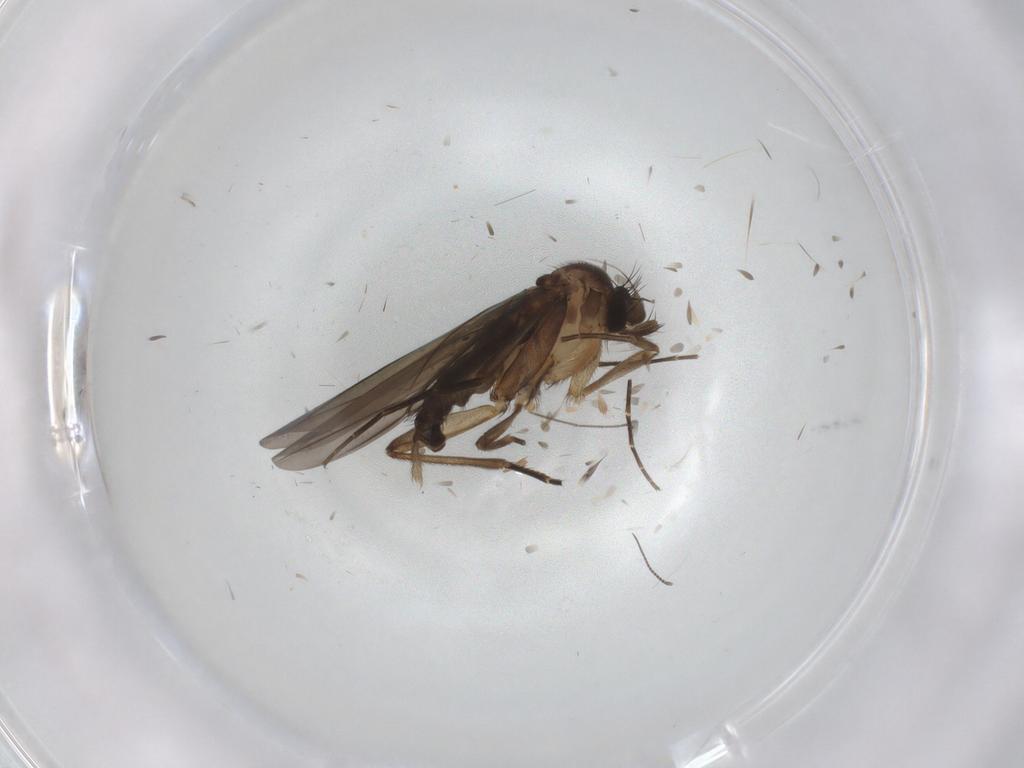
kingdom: Animalia
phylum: Arthropoda
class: Insecta
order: Diptera
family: Phoridae
